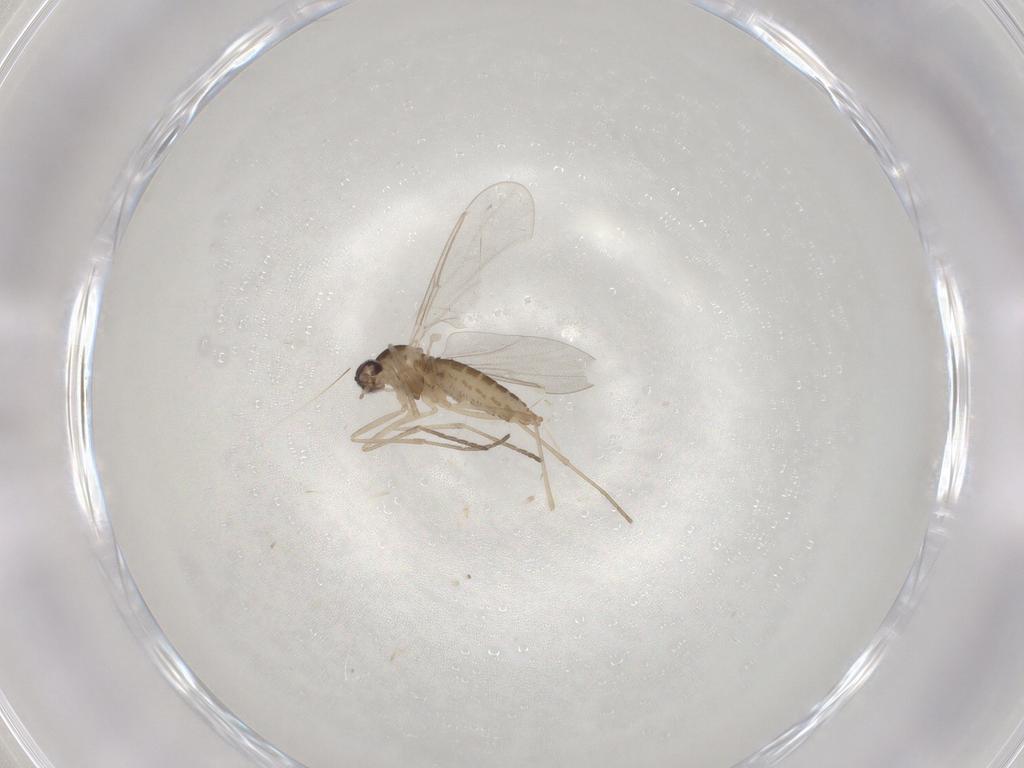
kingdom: Animalia
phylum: Arthropoda
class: Insecta
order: Diptera
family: Cecidomyiidae
